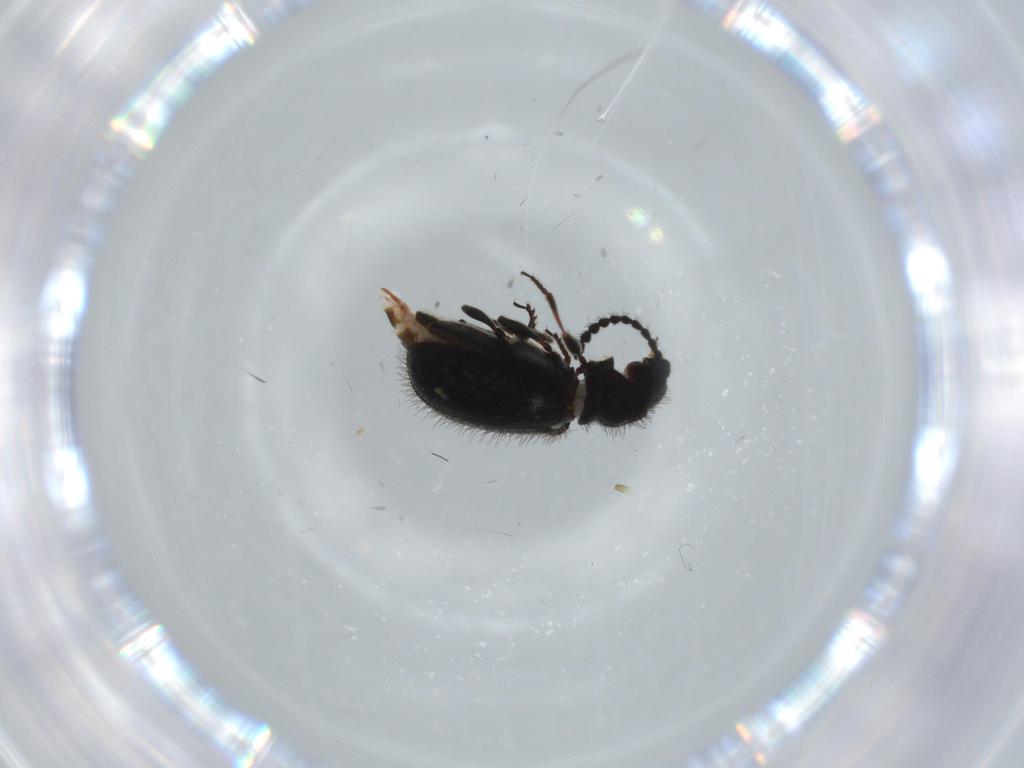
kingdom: Animalia
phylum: Arthropoda
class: Insecta
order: Coleoptera
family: Ptinidae
